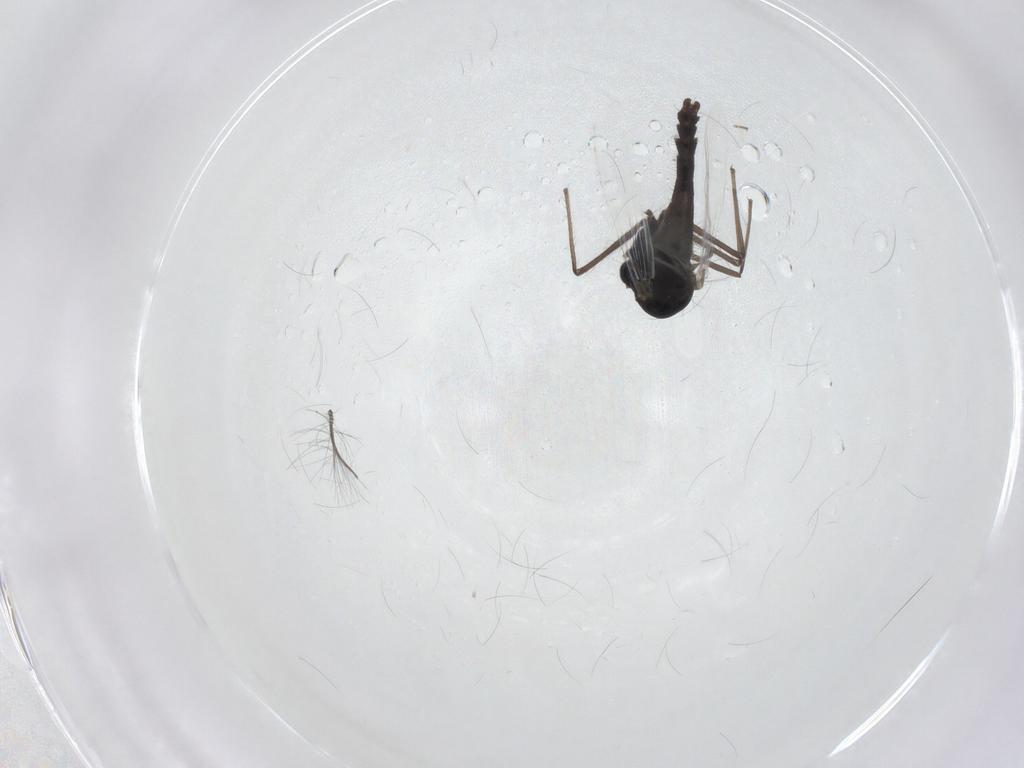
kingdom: Animalia
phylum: Arthropoda
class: Insecta
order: Diptera
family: Chironomidae
